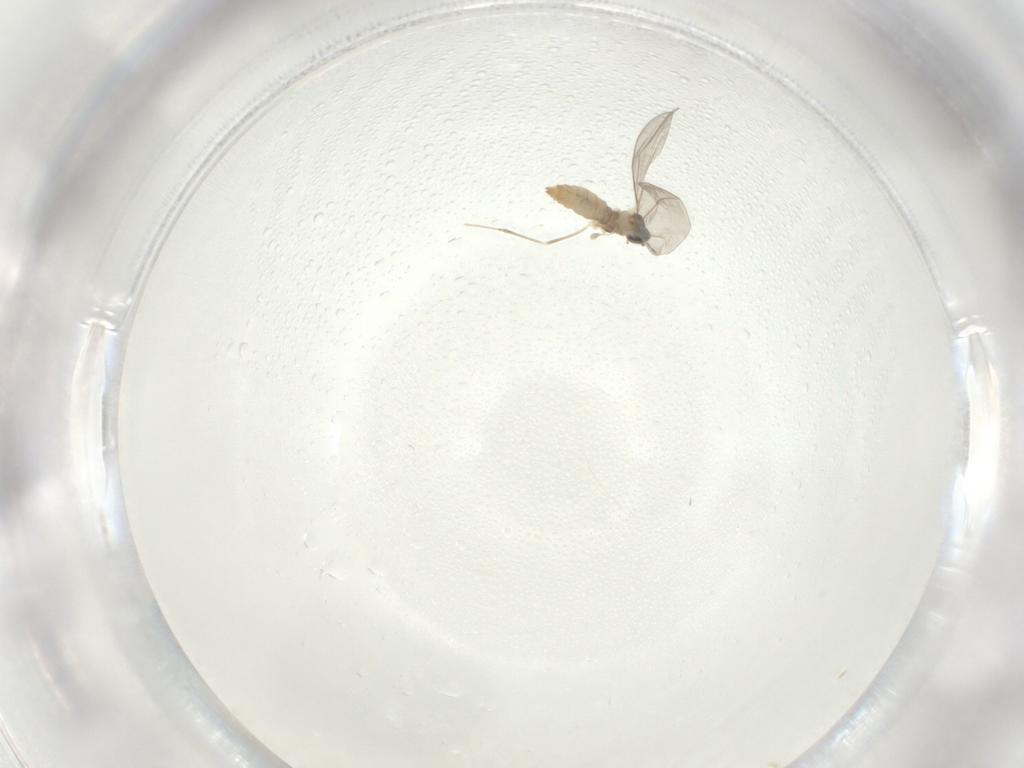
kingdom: Animalia
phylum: Arthropoda
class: Insecta
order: Diptera
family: Cecidomyiidae
